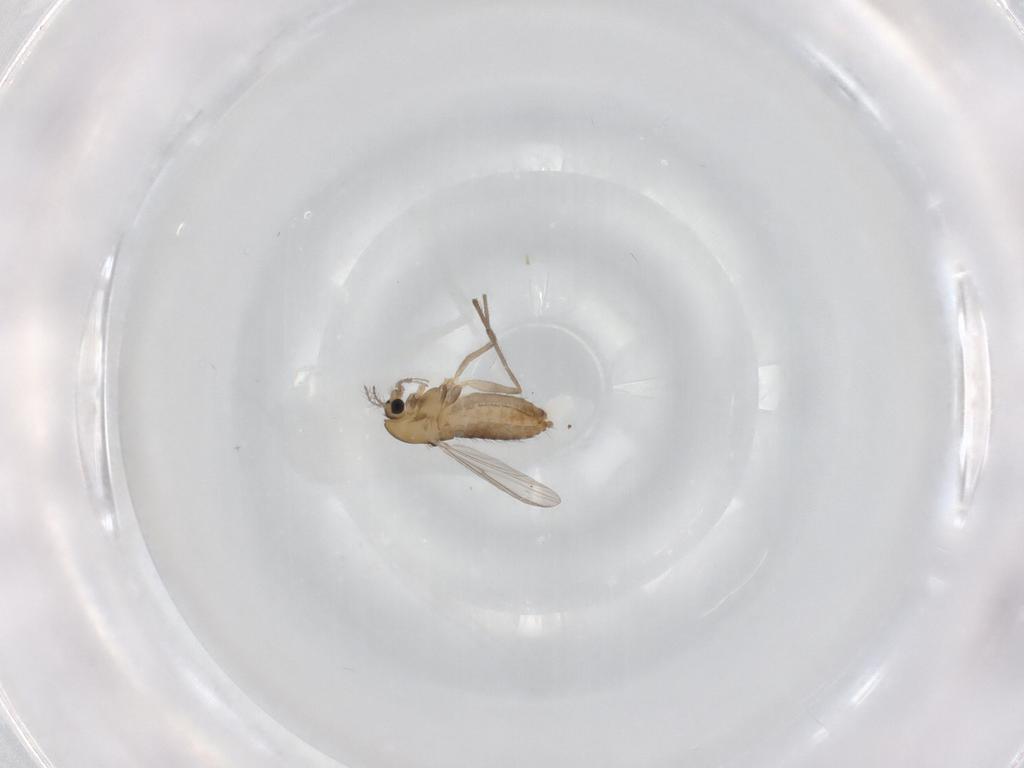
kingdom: Animalia
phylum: Arthropoda
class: Insecta
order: Diptera
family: Chironomidae
